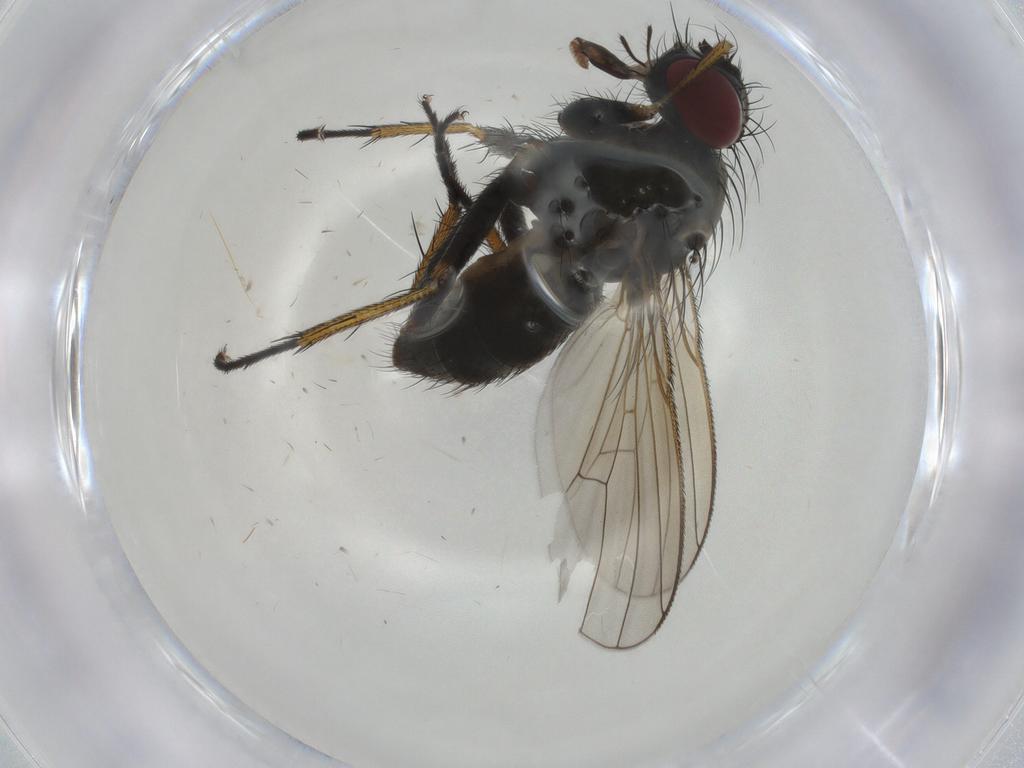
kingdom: Animalia
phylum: Arthropoda
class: Insecta
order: Diptera
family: Muscidae
